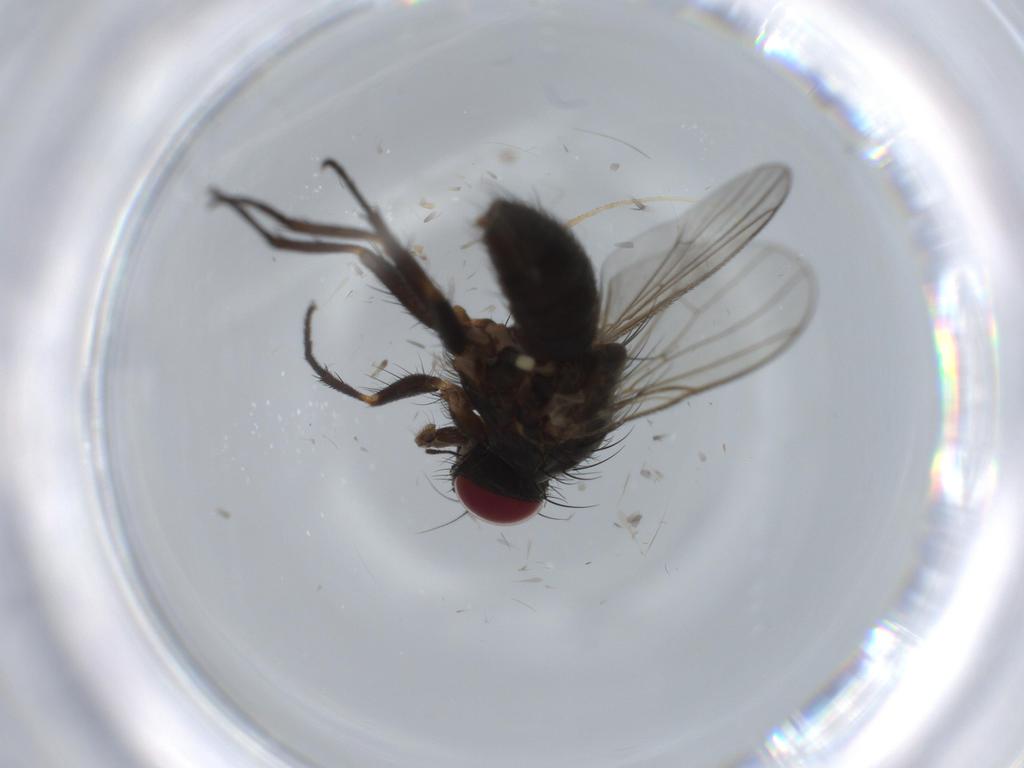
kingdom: Animalia
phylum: Arthropoda
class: Insecta
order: Diptera
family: Muscidae
